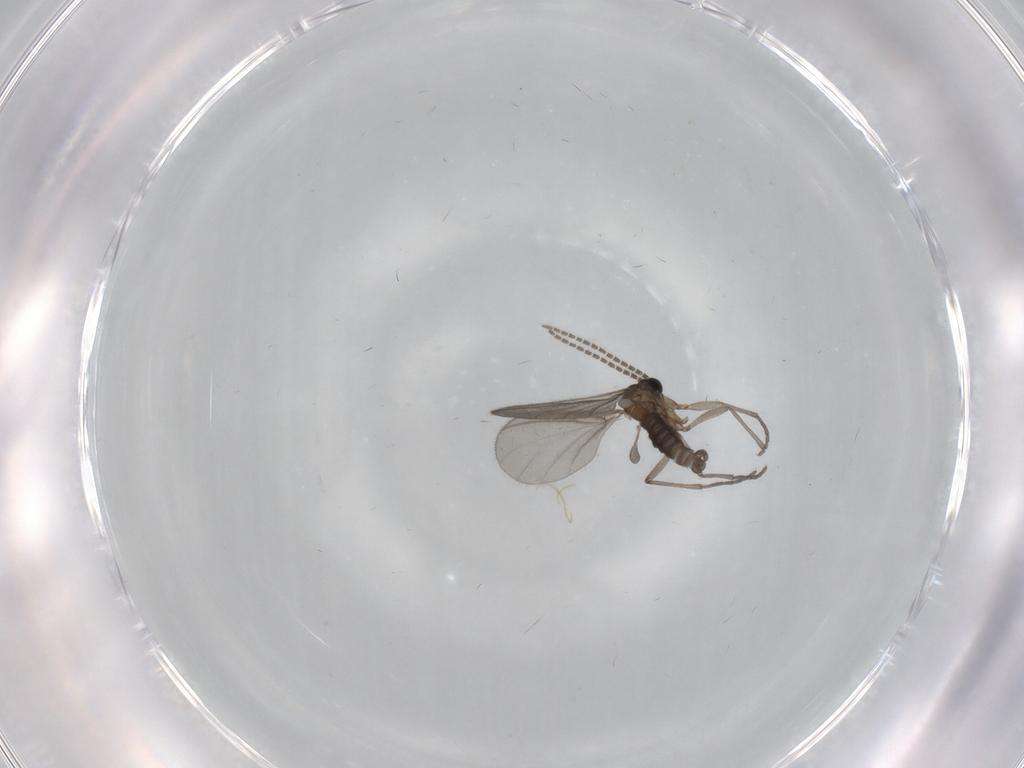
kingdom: Animalia
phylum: Arthropoda
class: Insecta
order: Diptera
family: Sciaridae
